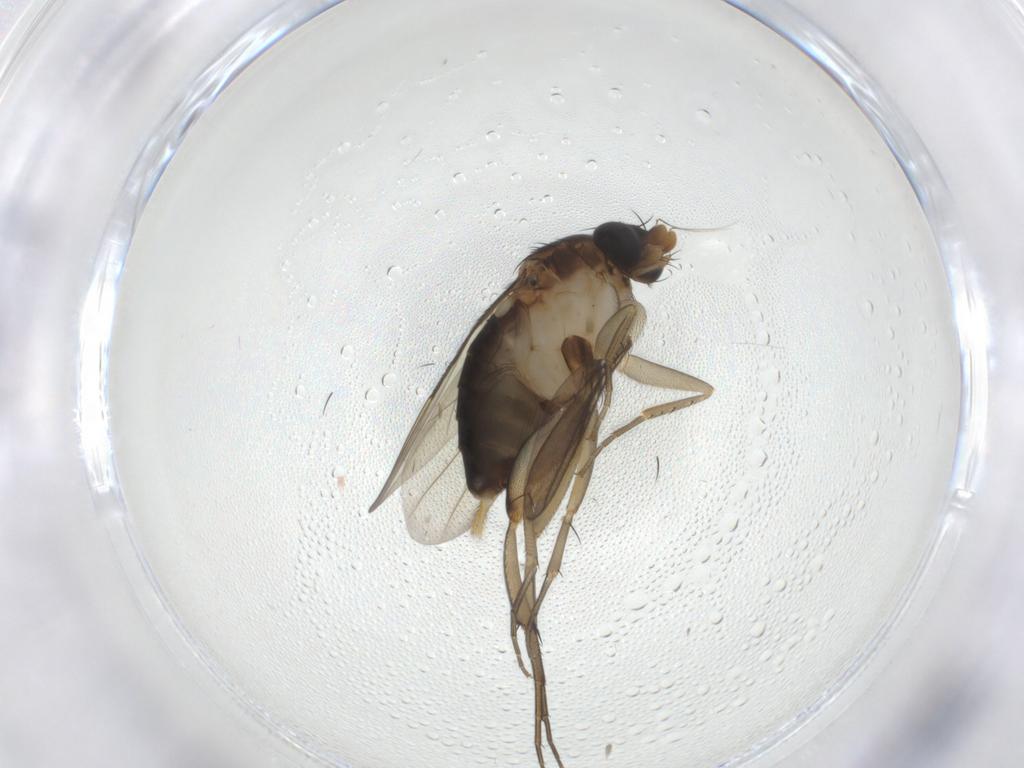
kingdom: Animalia
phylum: Arthropoda
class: Insecta
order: Diptera
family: Phoridae
